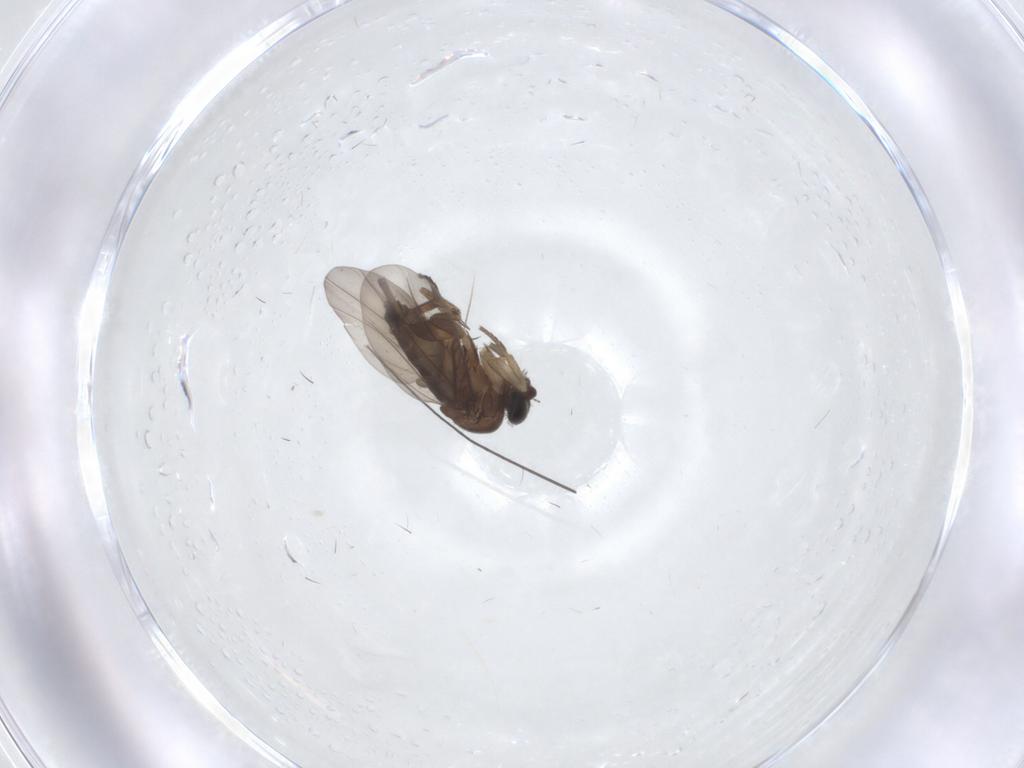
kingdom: Animalia
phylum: Arthropoda
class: Insecta
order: Diptera
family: Phoridae
